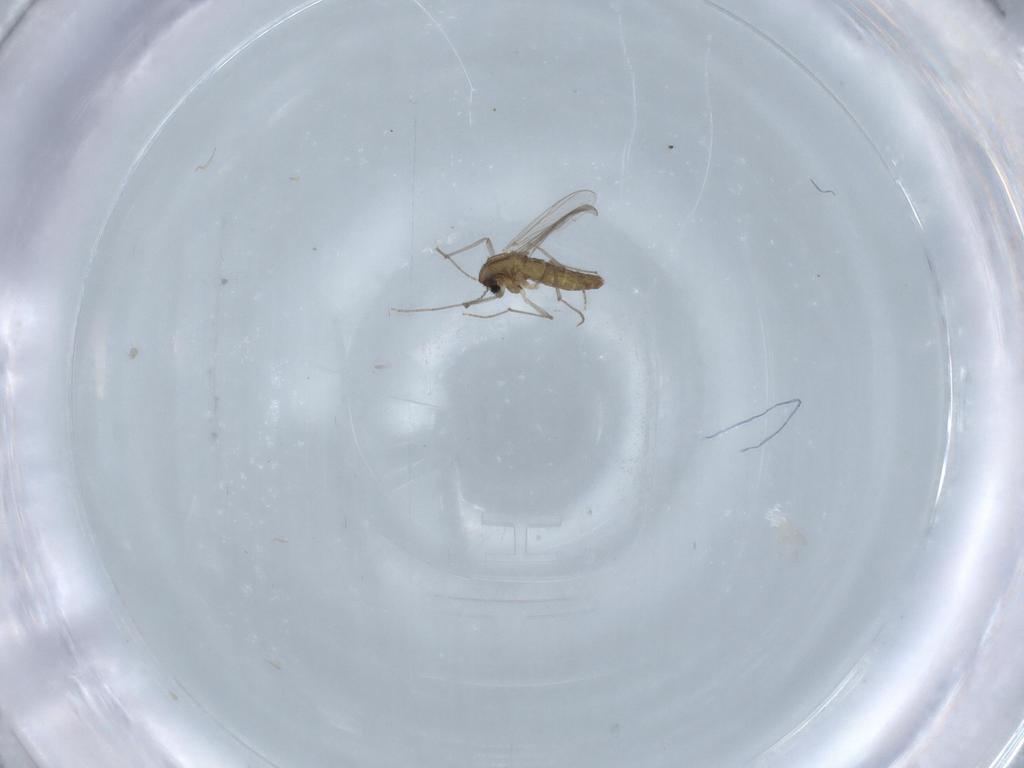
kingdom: Animalia
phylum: Arthropoda
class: Insecta
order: Diptera
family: Chironomidae
